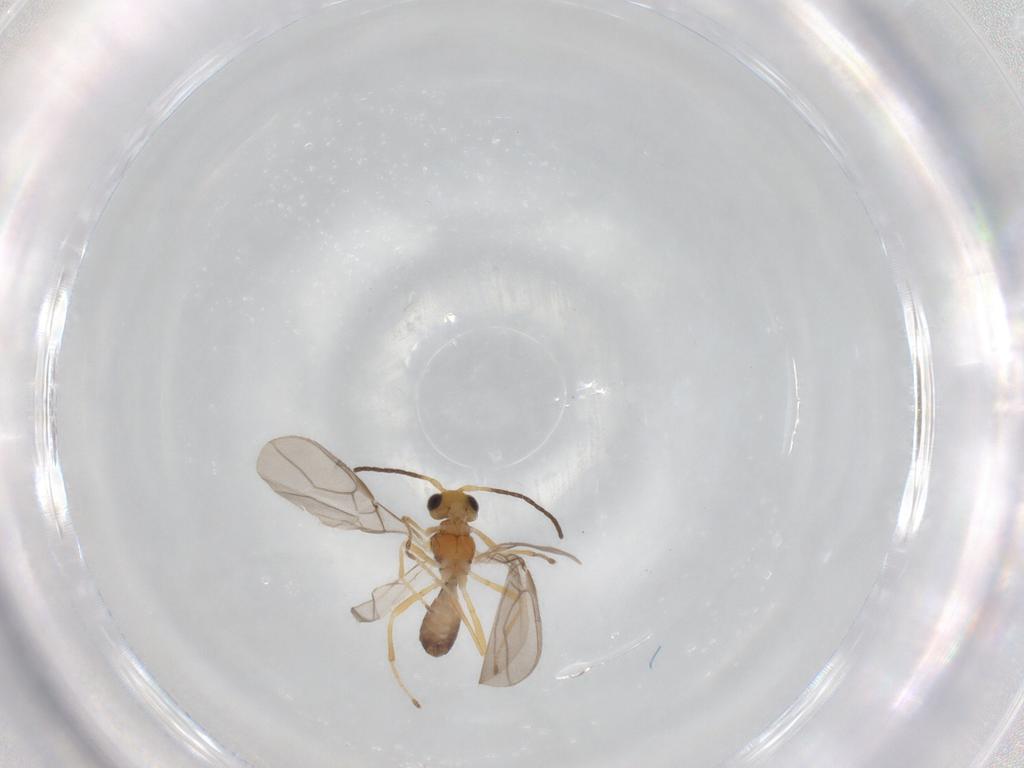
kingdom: Animalia
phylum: Arthropoda
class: Insecta
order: Hymenoptera
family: Braconidae
